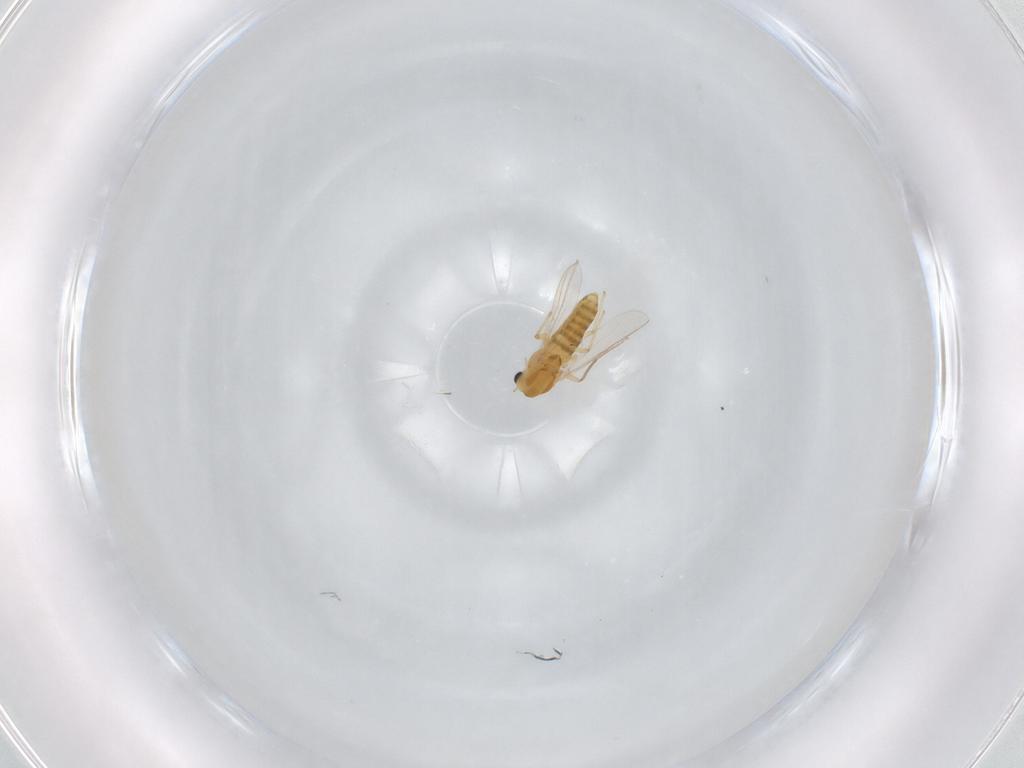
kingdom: Animalia
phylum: Arthropoda
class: Insecta
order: Diptera
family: Chironomidae
